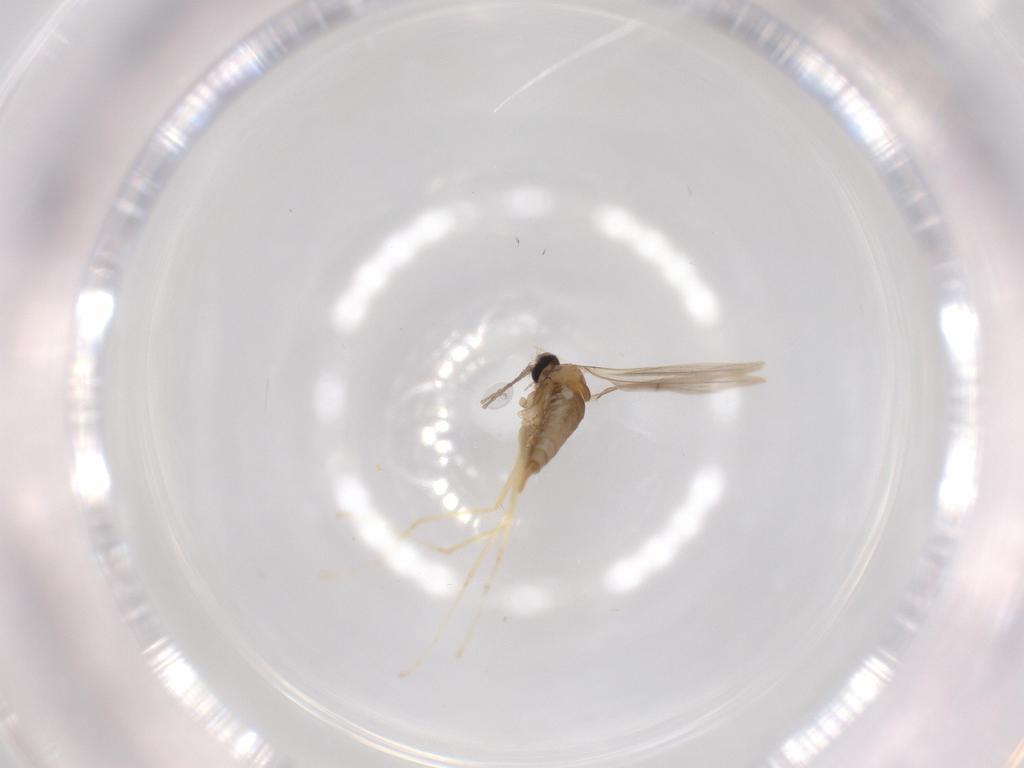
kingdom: Animalia
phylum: Arthropoda
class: Insecta
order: Diptera
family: Cecidomyiidae
